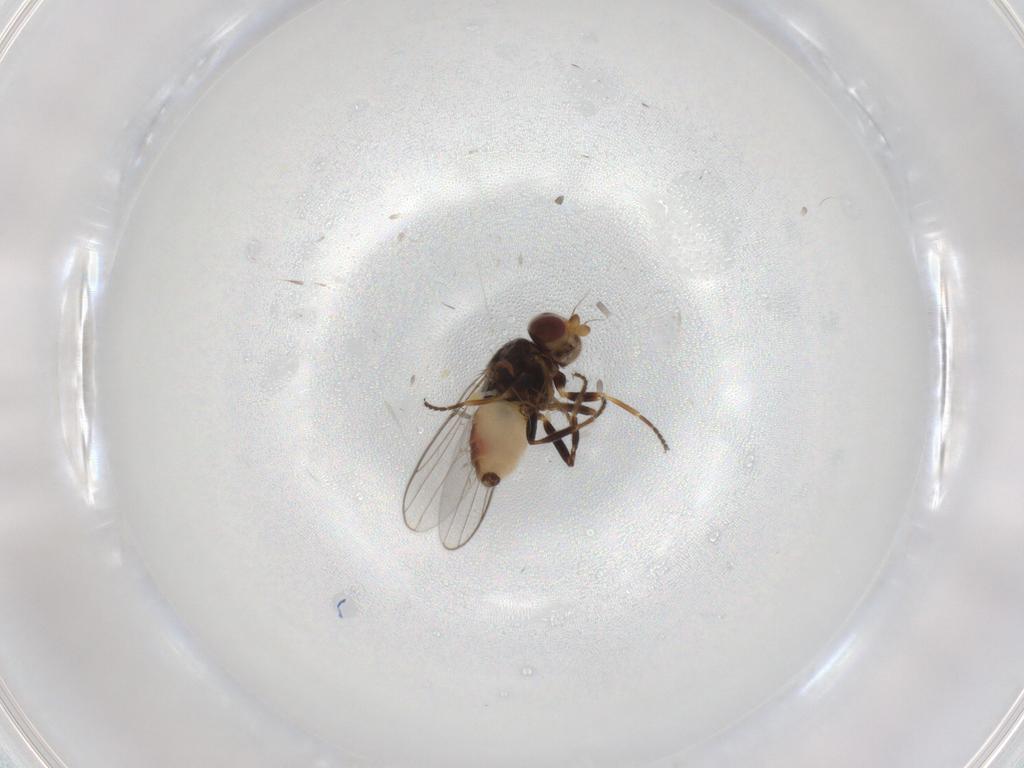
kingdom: Animalia
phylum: Arthropoda
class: Insecta
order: Diptera
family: Chloropidae
